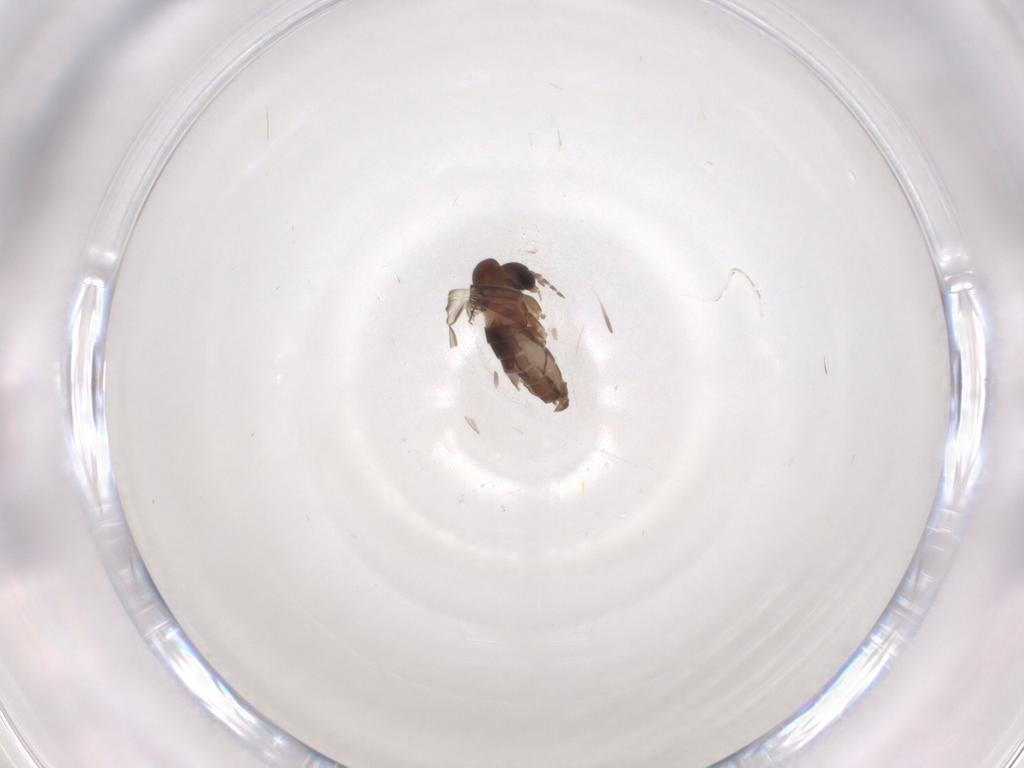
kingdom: Animalia
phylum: Arthropoda
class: Insecta
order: Diptera
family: Psychodidae
